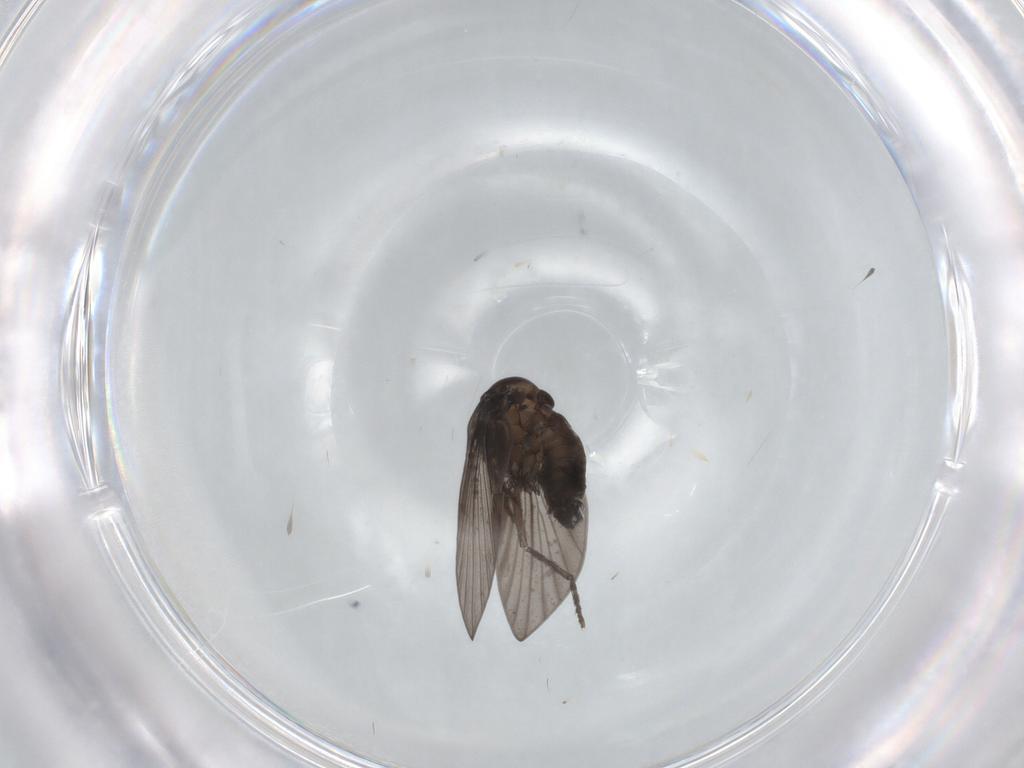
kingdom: Animalia
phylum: Arthropoda
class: Insecta
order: Diptera
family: Psychodidae
